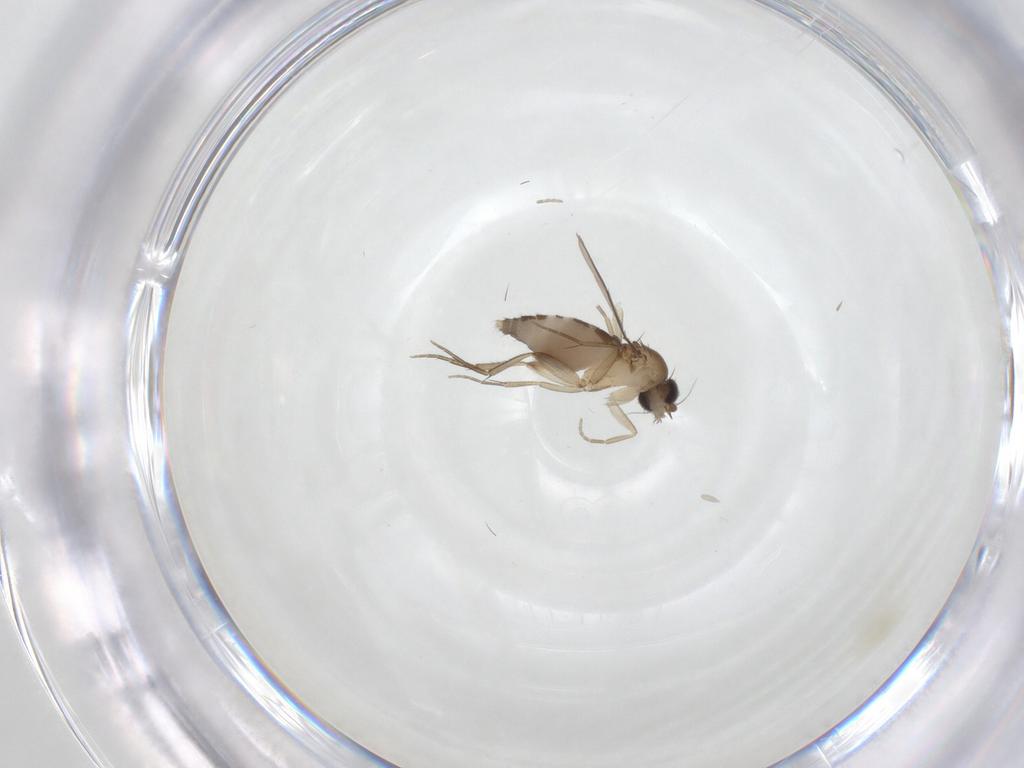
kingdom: Animalia
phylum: Arthropoda
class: Insecta
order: Diptera
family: Phoridae
